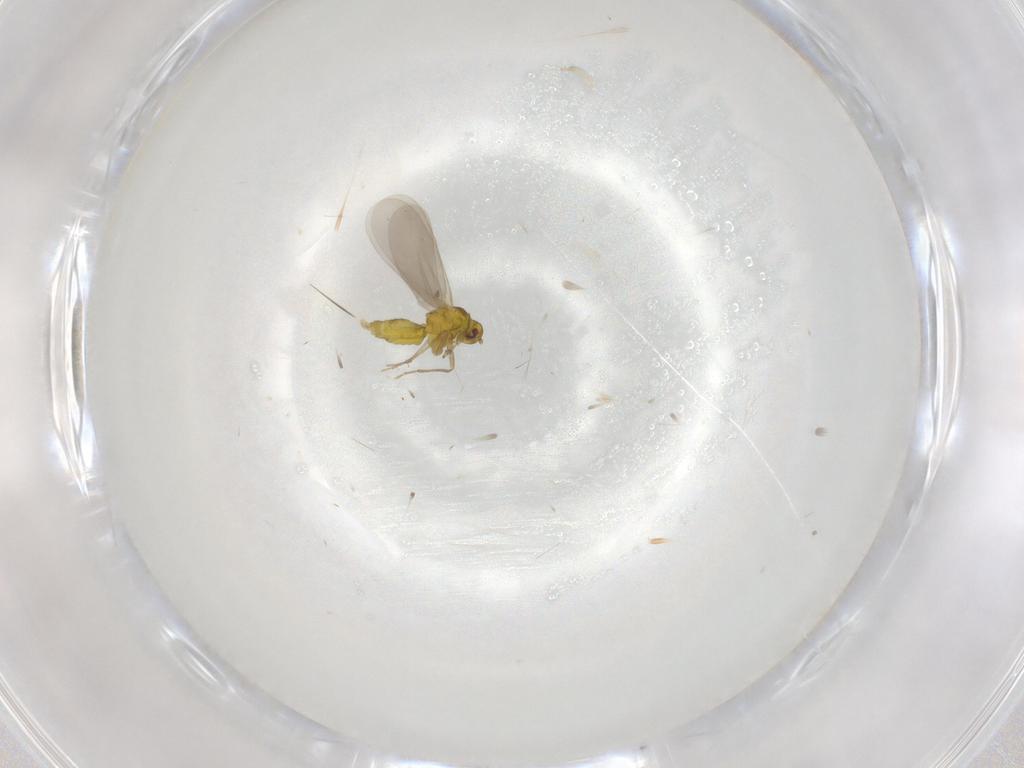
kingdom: Animalia
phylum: Arthropoda
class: Insecta
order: Hemiptera
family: Aleyrodidae
